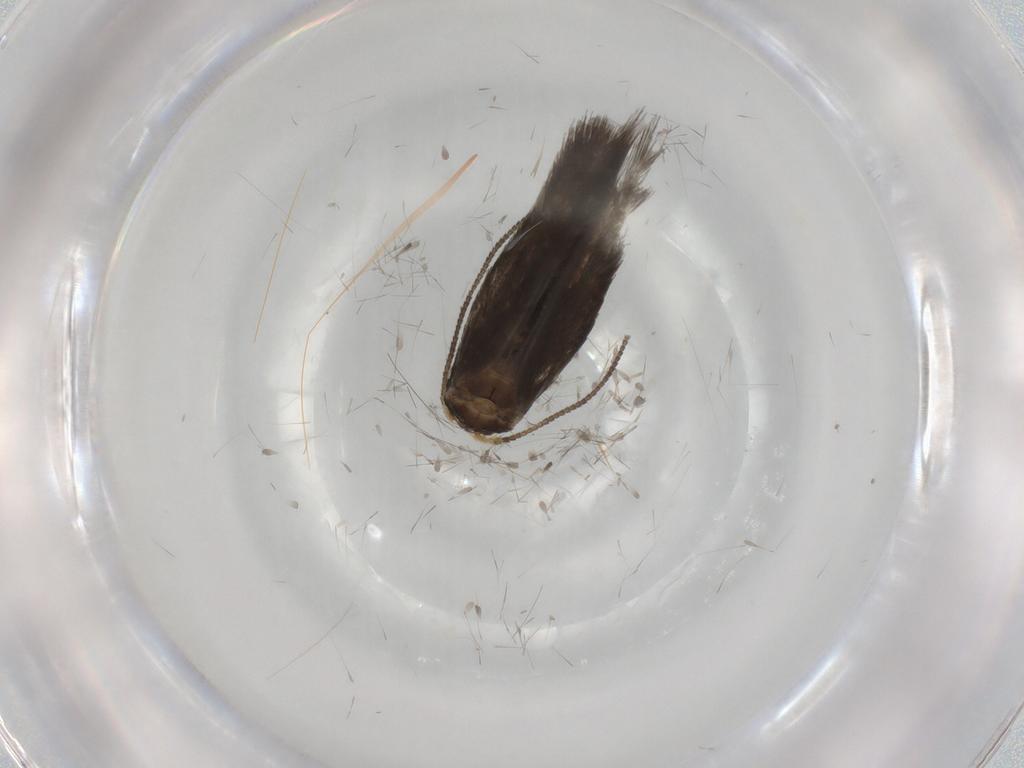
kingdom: Animalia
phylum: Arthropoda
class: Insecta
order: Lepidoptera
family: Nepticulidae
